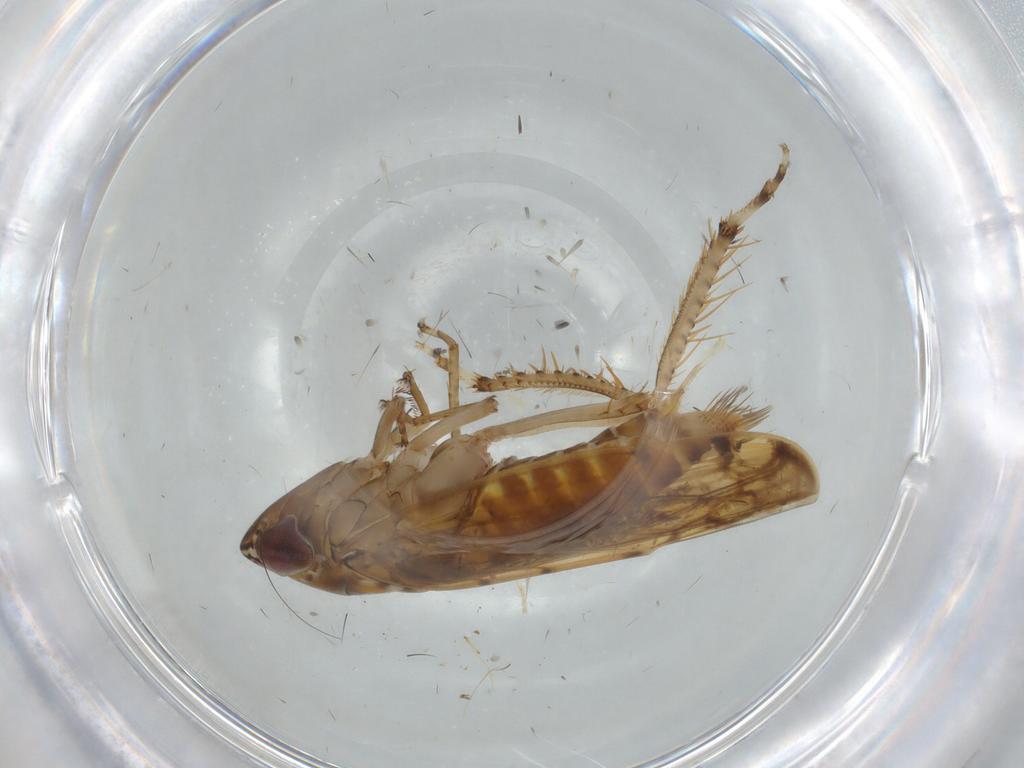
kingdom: Animalia
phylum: Arthropoda
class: Insecta
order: Hemiptera
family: Cicadellidae
